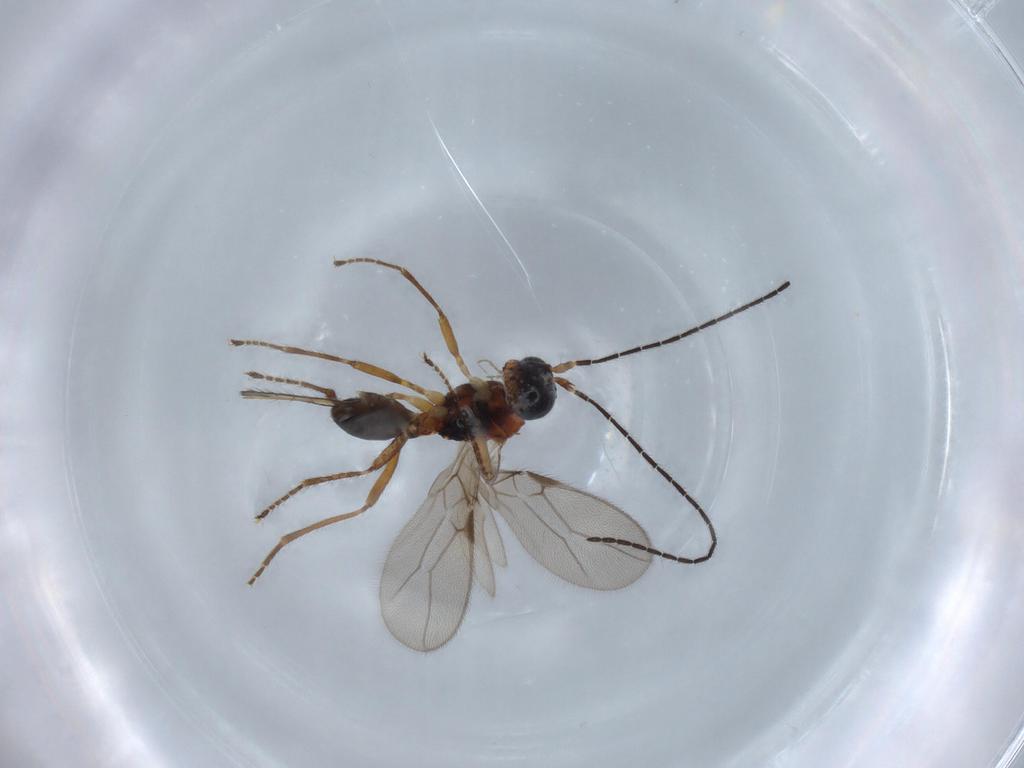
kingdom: Animalia
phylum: Arthropoda
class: Insecta
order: Hymenoptera
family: Braconidae
